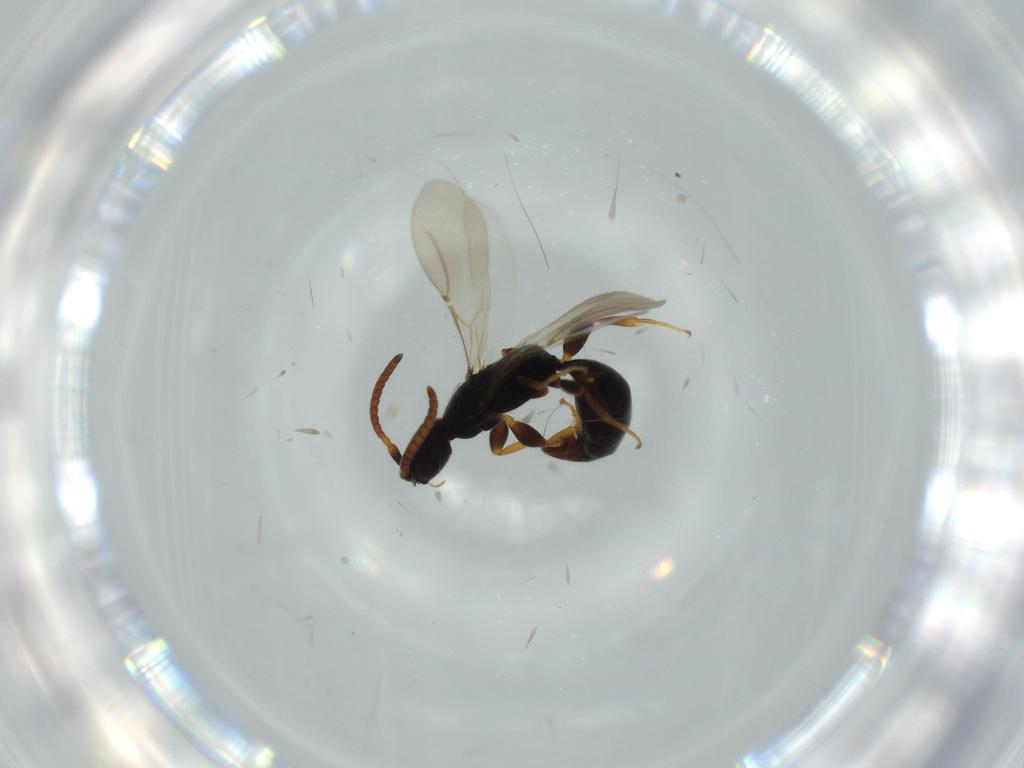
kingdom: Animalia
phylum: Arthropoda
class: Insecta
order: Hymenoptera
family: Bethylidae
